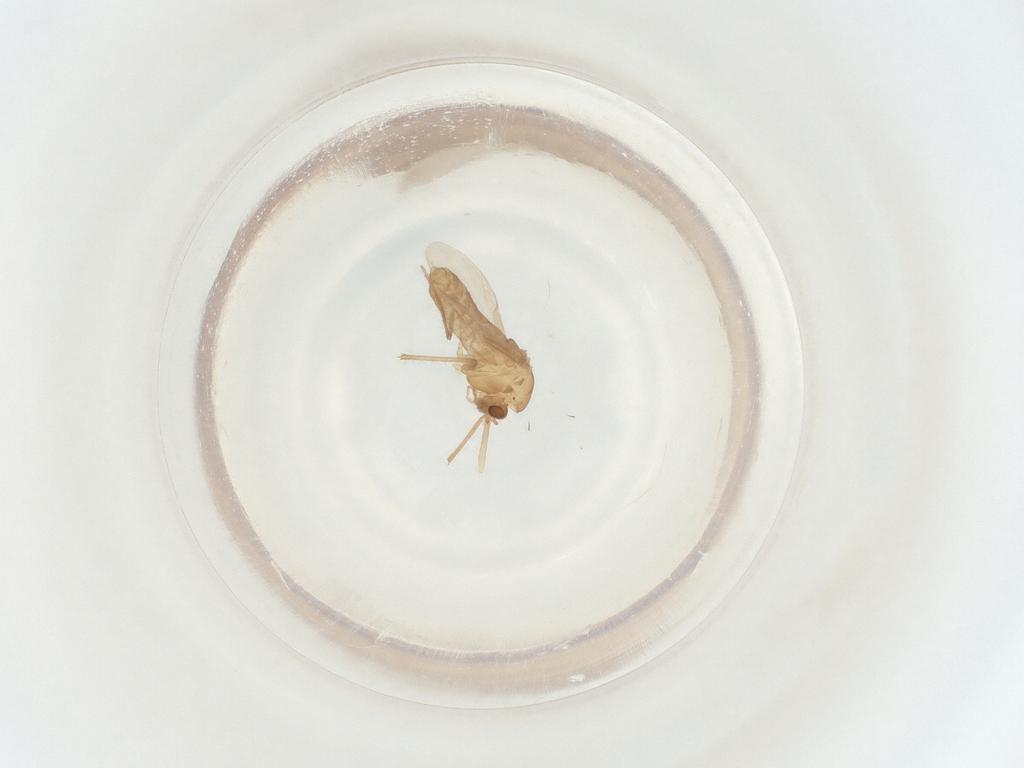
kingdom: Animalia
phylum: Arthropoda
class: Insecta
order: Diptera
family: Chironomidae
